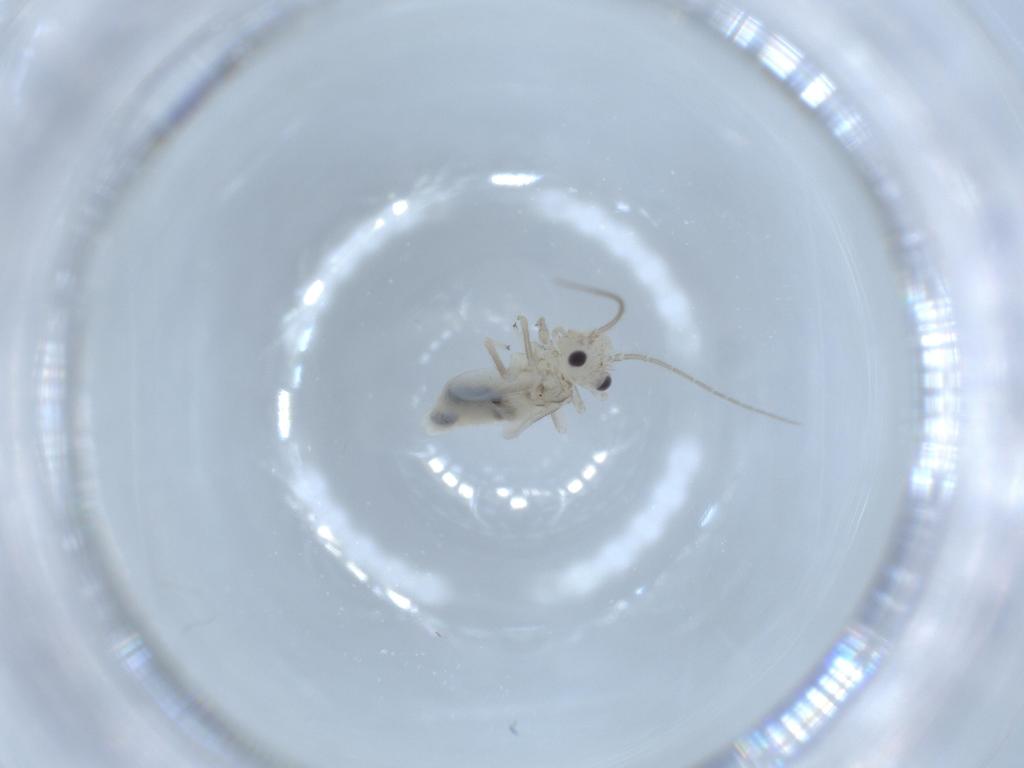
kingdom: Animalia
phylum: Arthropoda
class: Insecta
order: Psocodea
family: Caeciliusidae
